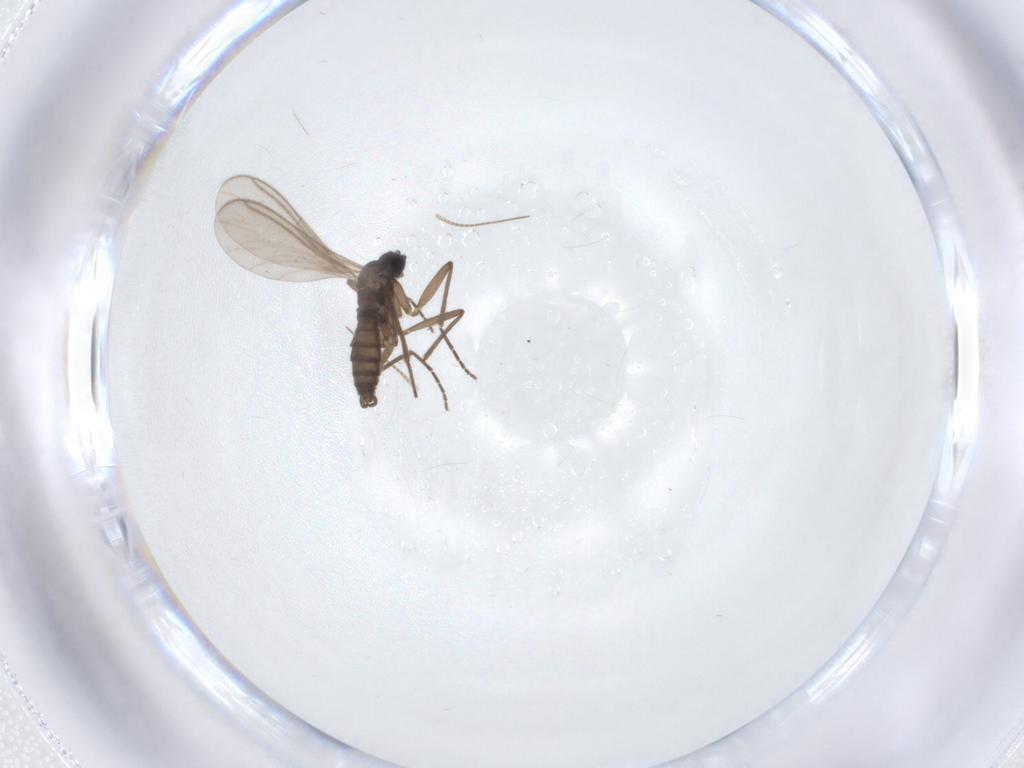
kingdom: Animalia
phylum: Arthropoda
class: Insecta
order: Diptera
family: Sciaridae
